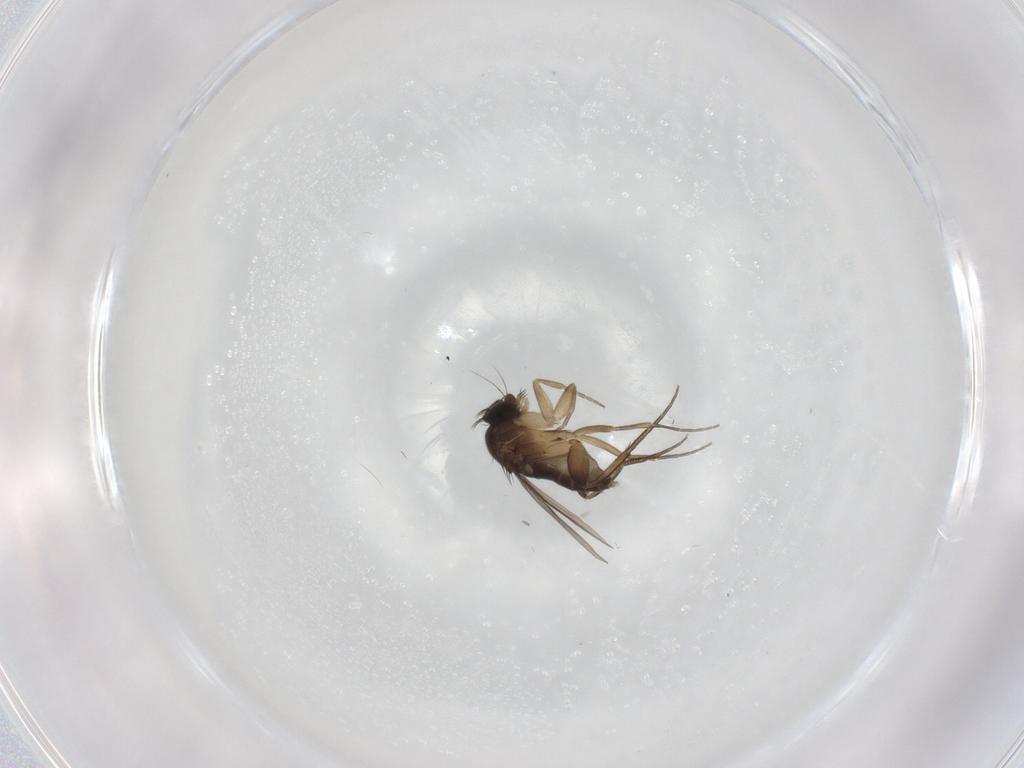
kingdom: Animalia
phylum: Arthropoda
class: Insecta
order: Diptera
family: Phoridae
